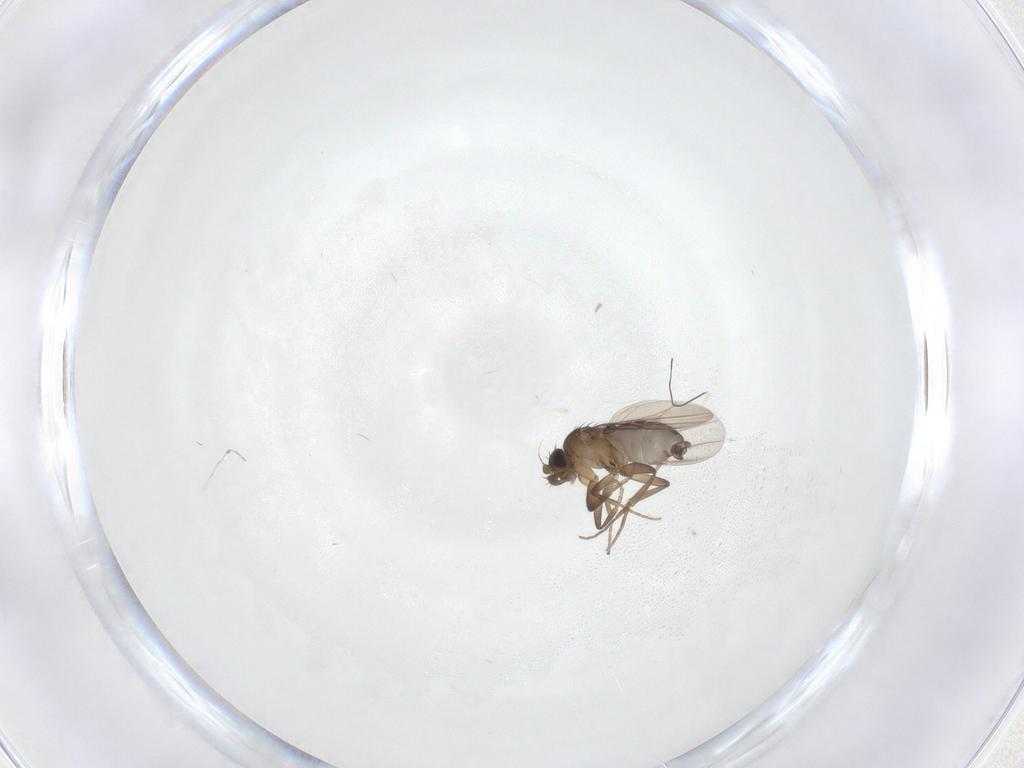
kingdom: Animalia
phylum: Arthropoda
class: Insecta
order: Diptera
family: Phoridae
